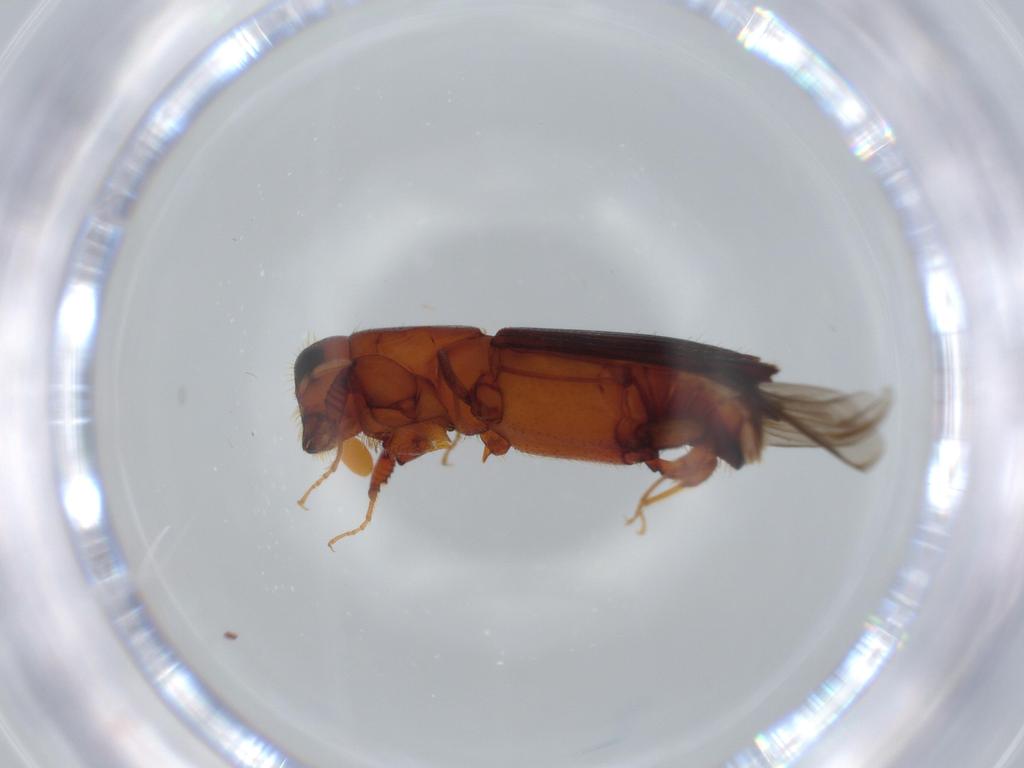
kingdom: Animalia
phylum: Arthropoda
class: Insecta
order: Coleoptera
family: Curculionidae
